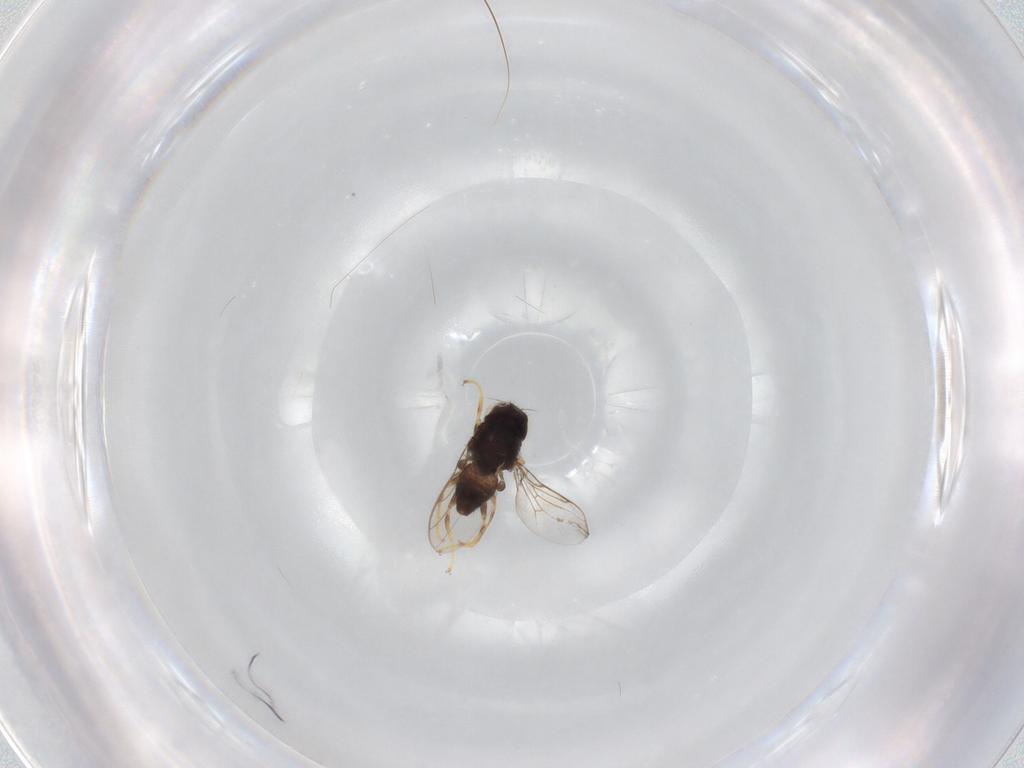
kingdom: Animalia
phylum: Arthropoda
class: Insecta
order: Diptera
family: Chloropidae
